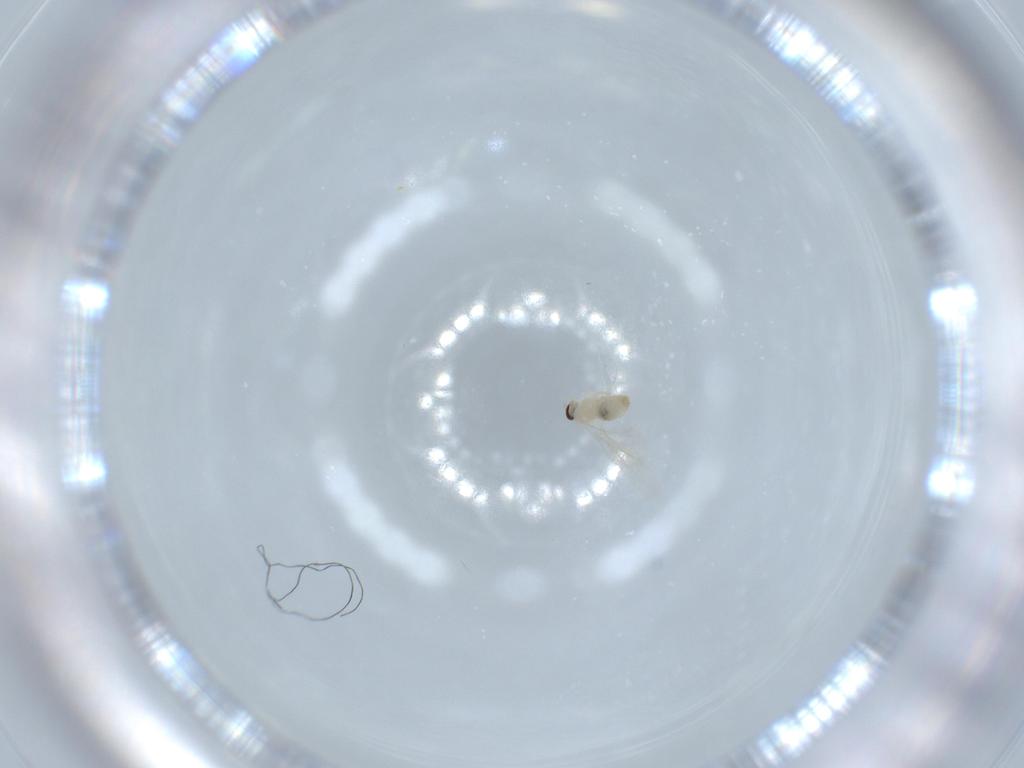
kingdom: Animalia
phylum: Arthropoda
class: Insecta
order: Diptera
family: Cecidomyiidae
